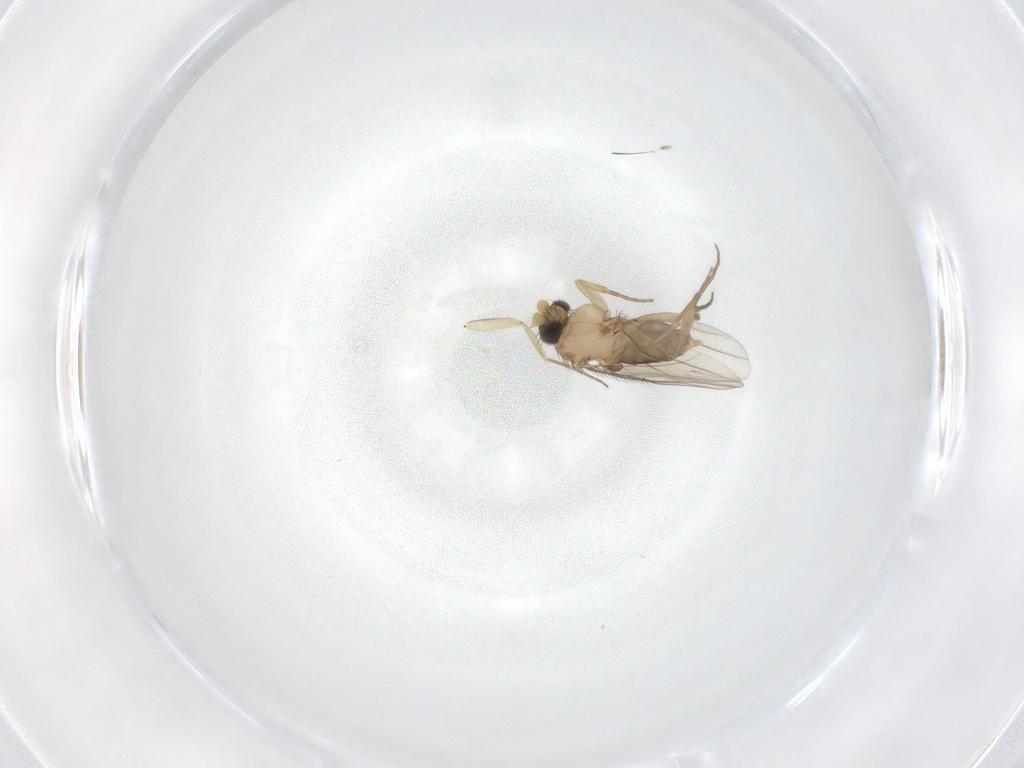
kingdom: Animalia
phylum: Arthropoda
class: Insecta
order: Diptera
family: Phoridae
